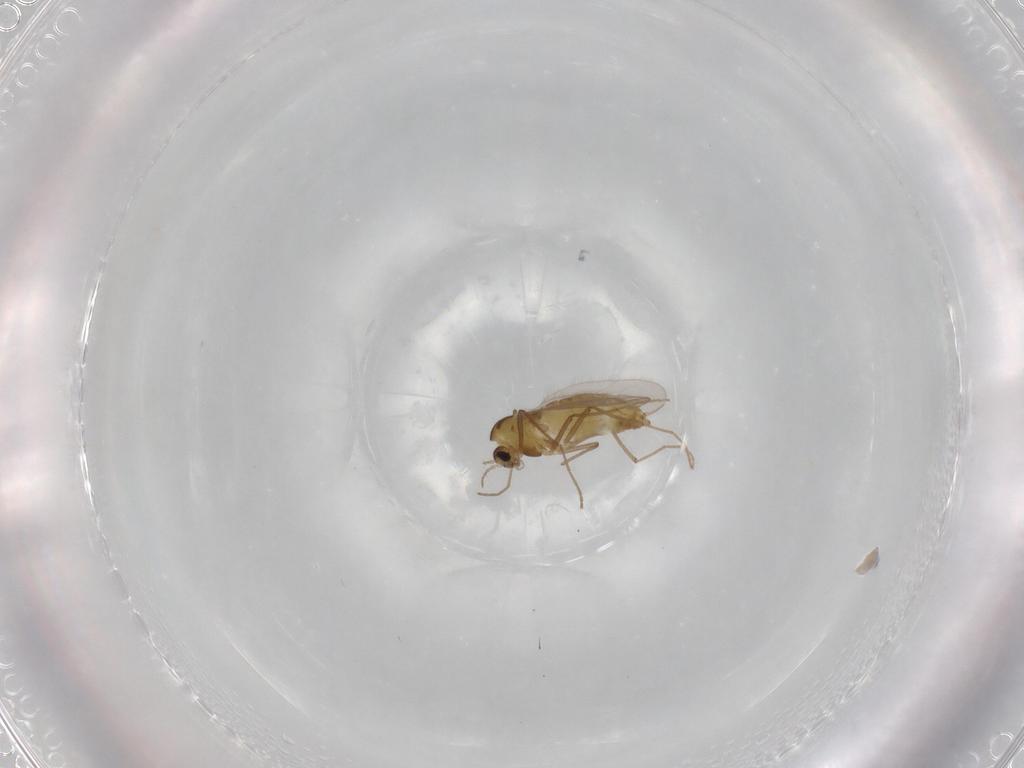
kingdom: Animalia
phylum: Arthropoda
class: Insecta
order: Diptera
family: Chironomidae
